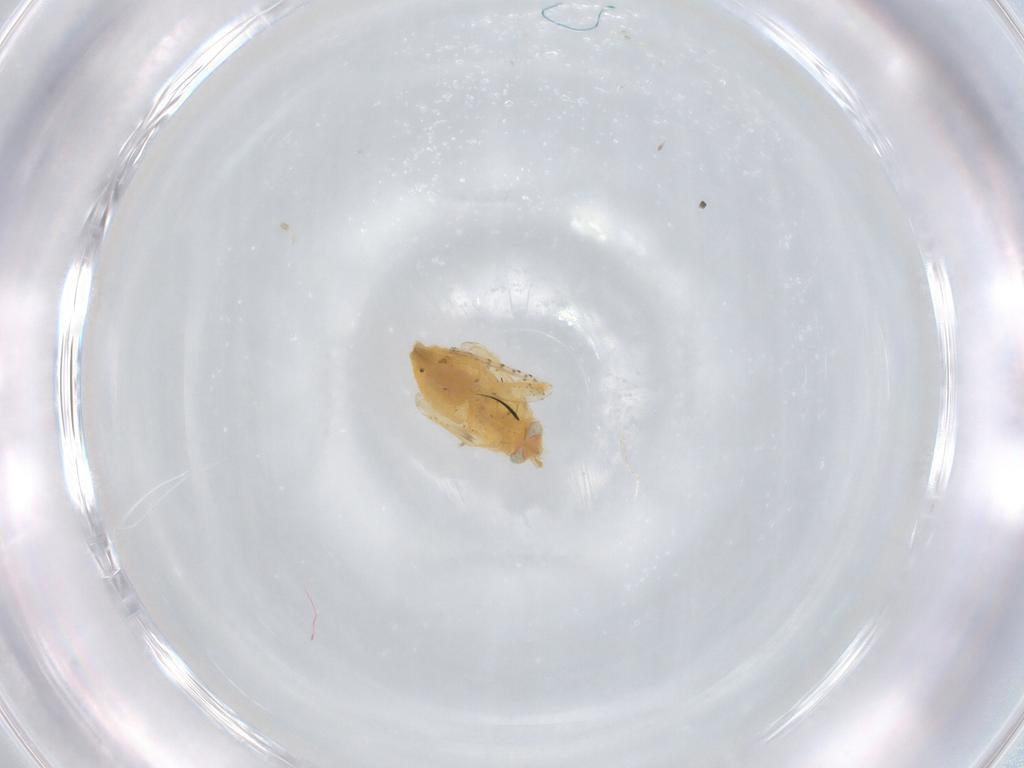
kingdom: Animalia
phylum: Arthropoda
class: Insecta
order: Hemiptera
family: Miridae
